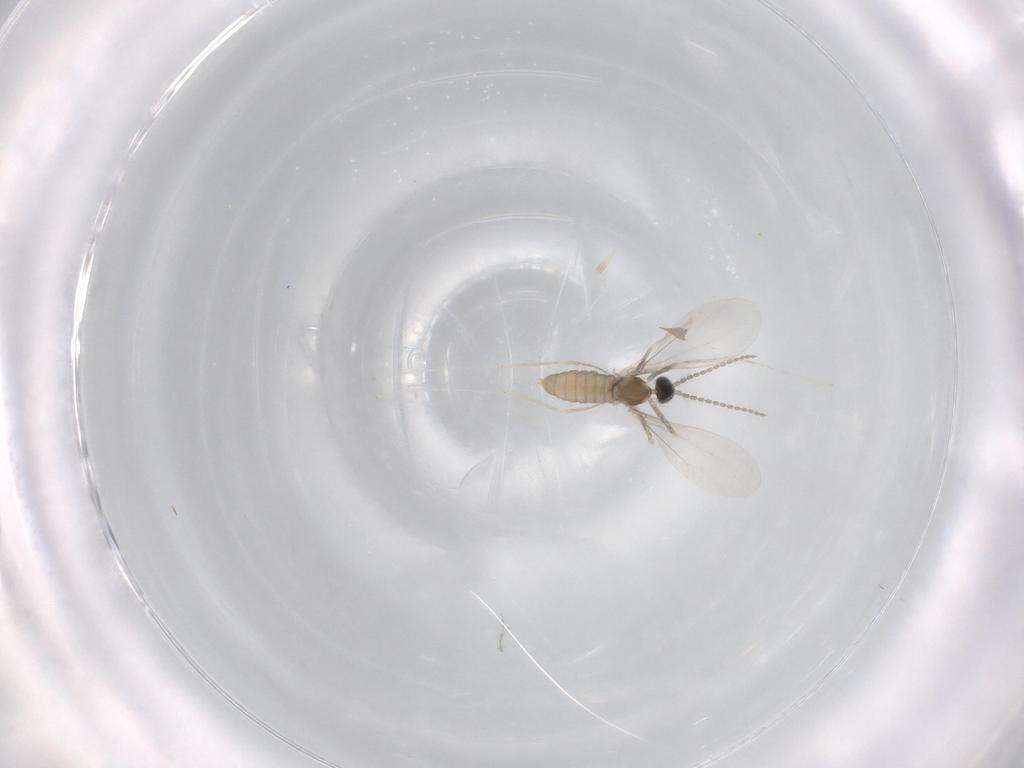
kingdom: Animalia
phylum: Arthropoda
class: Insecta
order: Diptera
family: Cecidomyiidae
